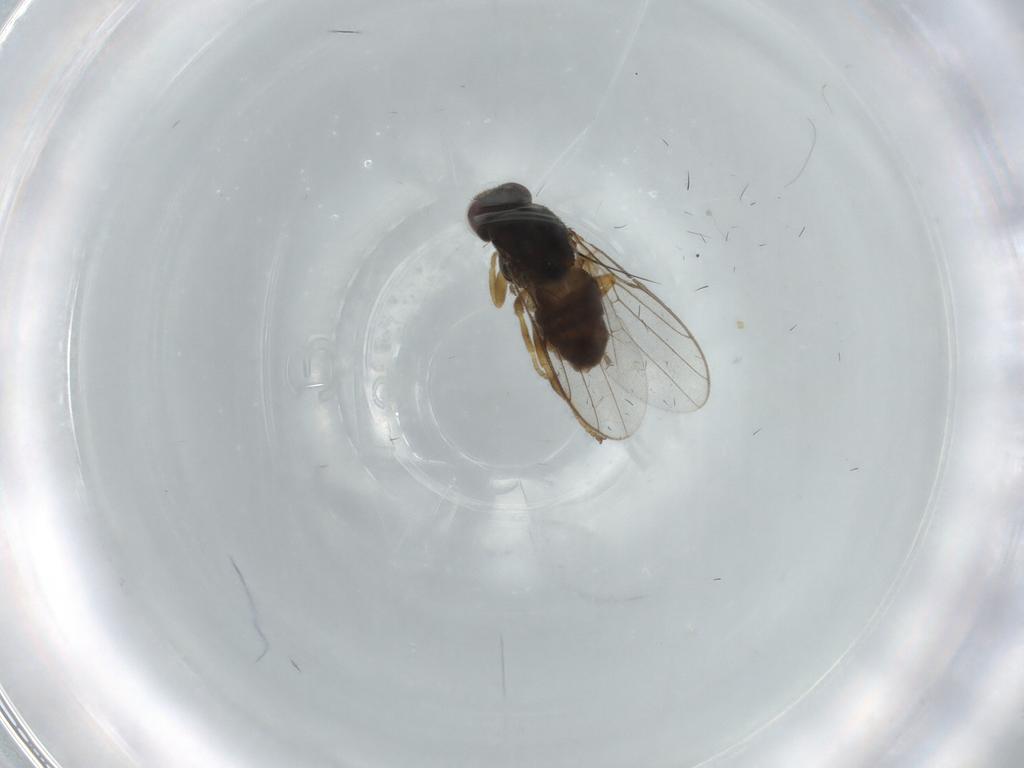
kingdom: Animalia
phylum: Arthropoda
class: Insecta
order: Diptera
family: Chloropidae
